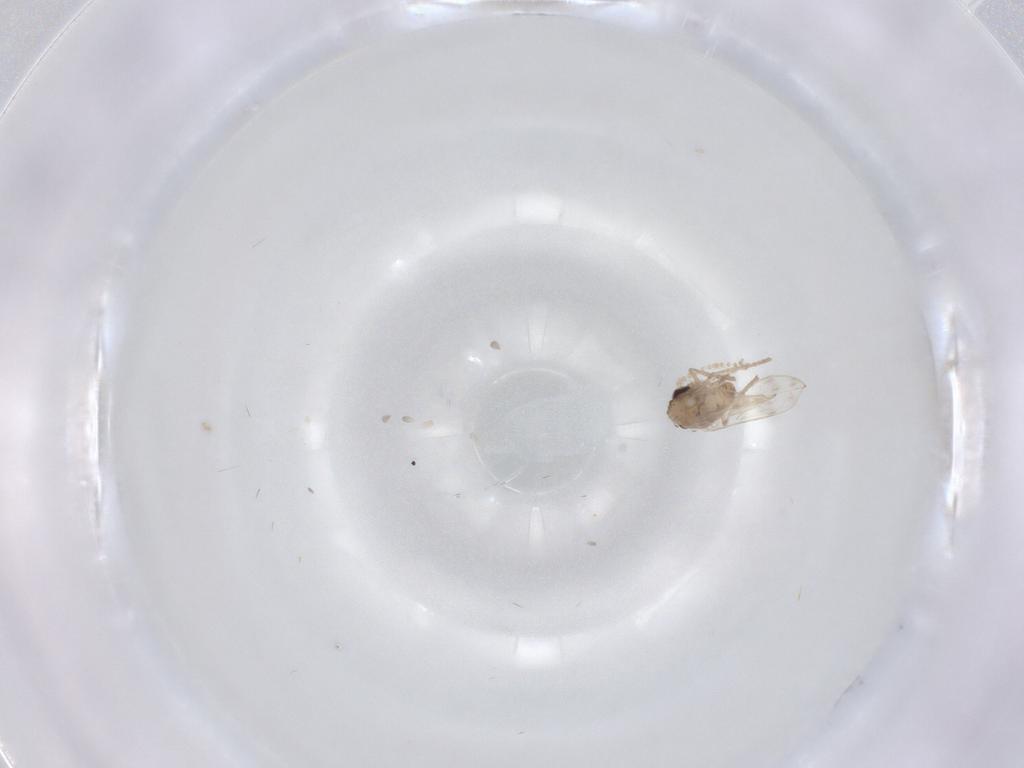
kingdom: Animalia
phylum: Arthropoda
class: Insecta
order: Diptera
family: Psychodidae
